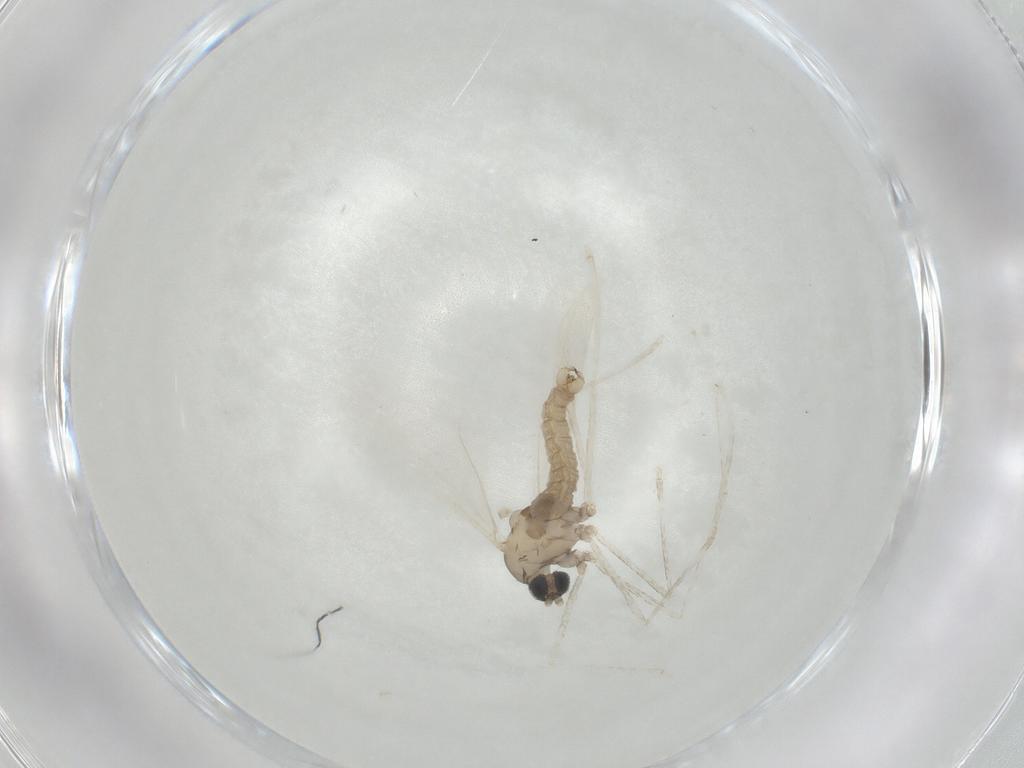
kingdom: Animalia
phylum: Arthropoda
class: Insecta
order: Diptera
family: Cecidomyiidae
